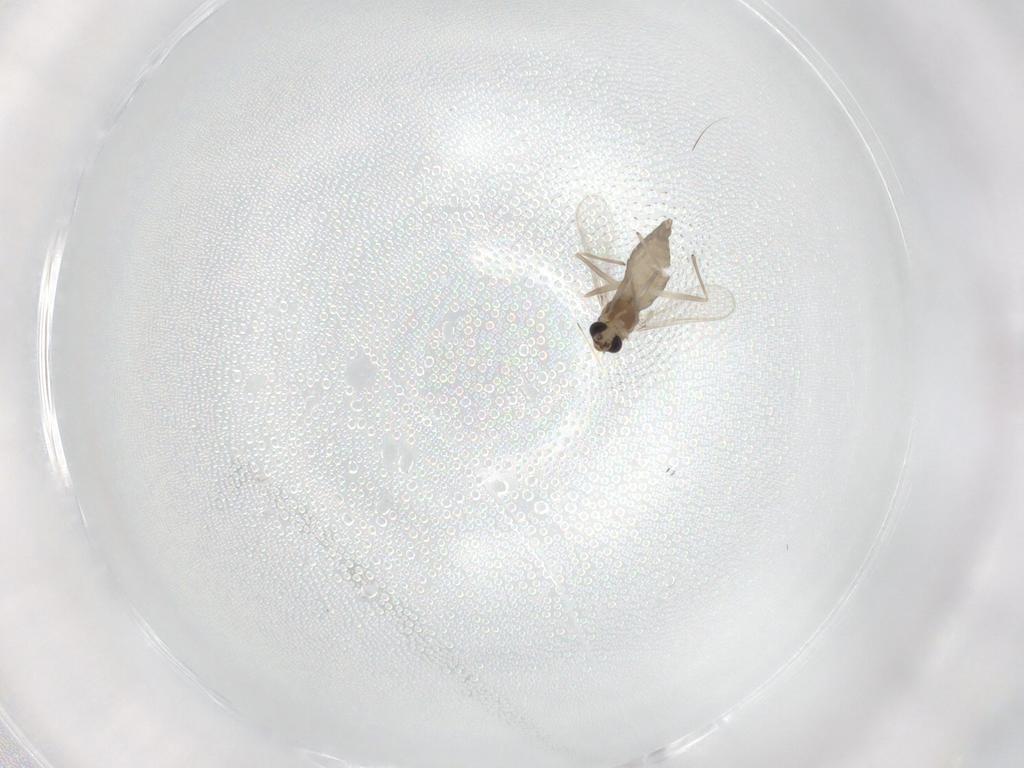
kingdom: Animalia
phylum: Arthropoda
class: Insecta
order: Diptera
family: Chironomidae
